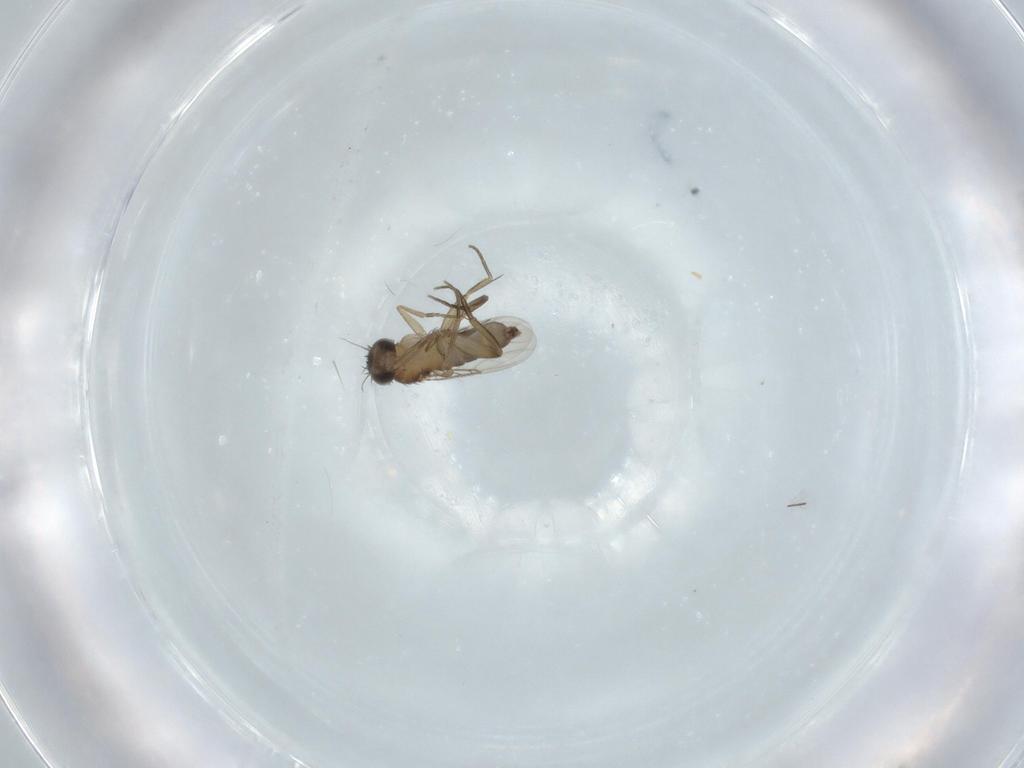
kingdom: Animalia
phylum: Arthropoda
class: Insecta
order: Diptera
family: Phoridae
